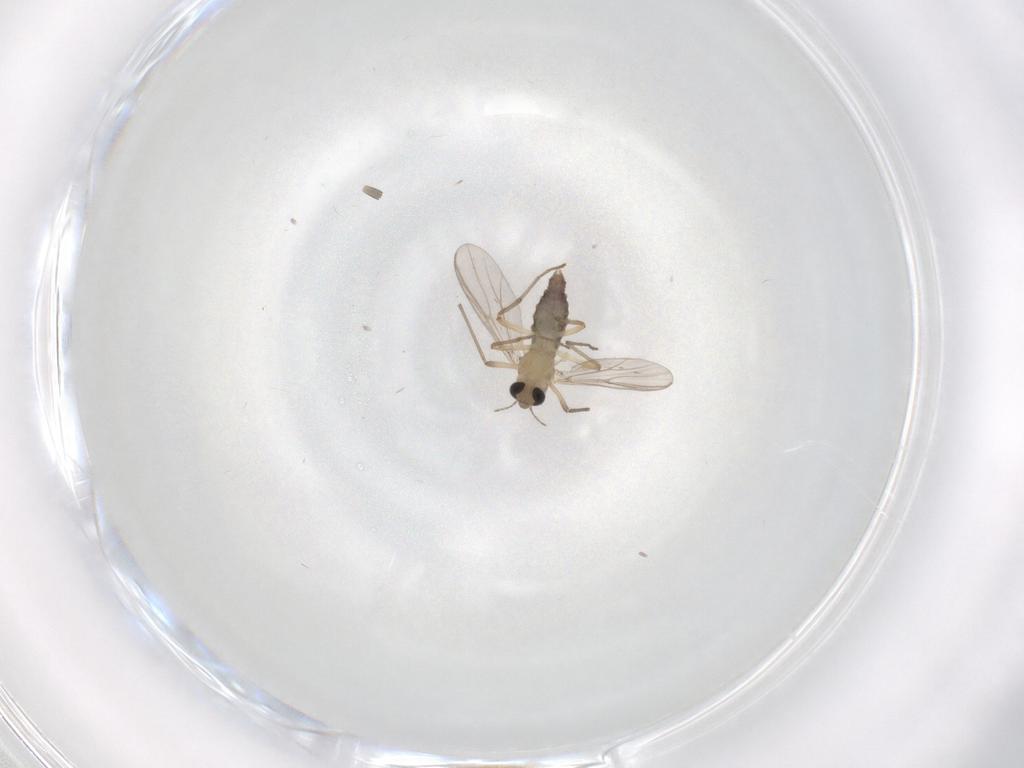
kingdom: Animalia
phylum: Arthropoda
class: Insecta
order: Diptera
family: Chironomidae
